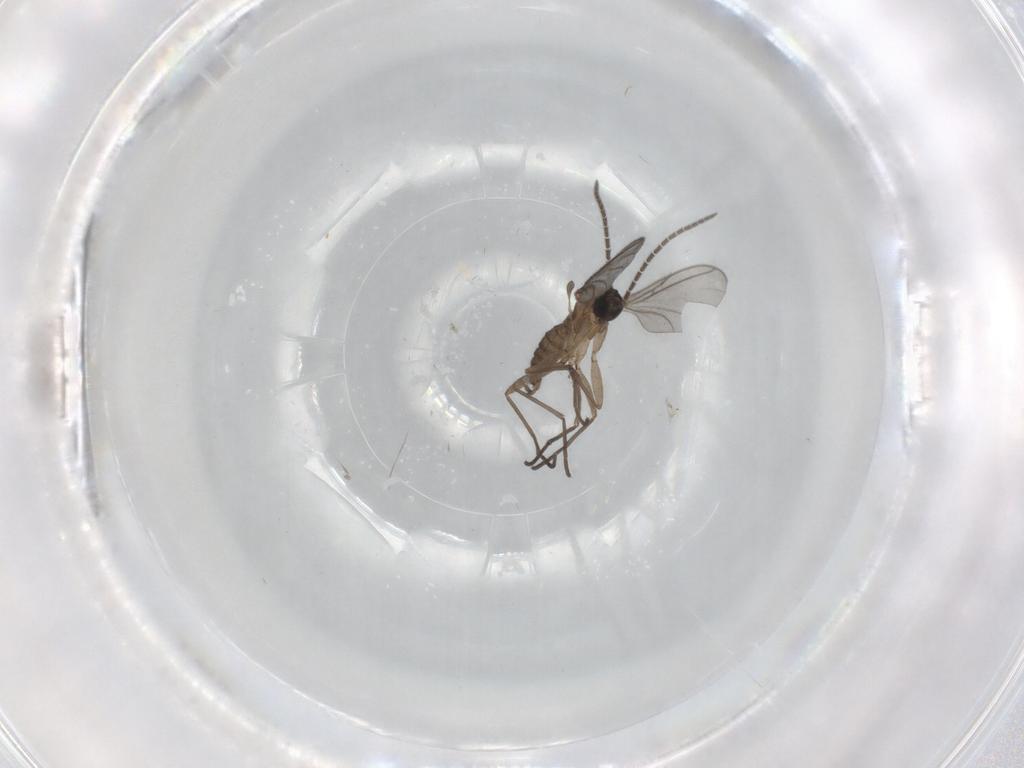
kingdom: Animalia
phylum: Arthropoda
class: Insecta
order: Diptera
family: Sciaridae
